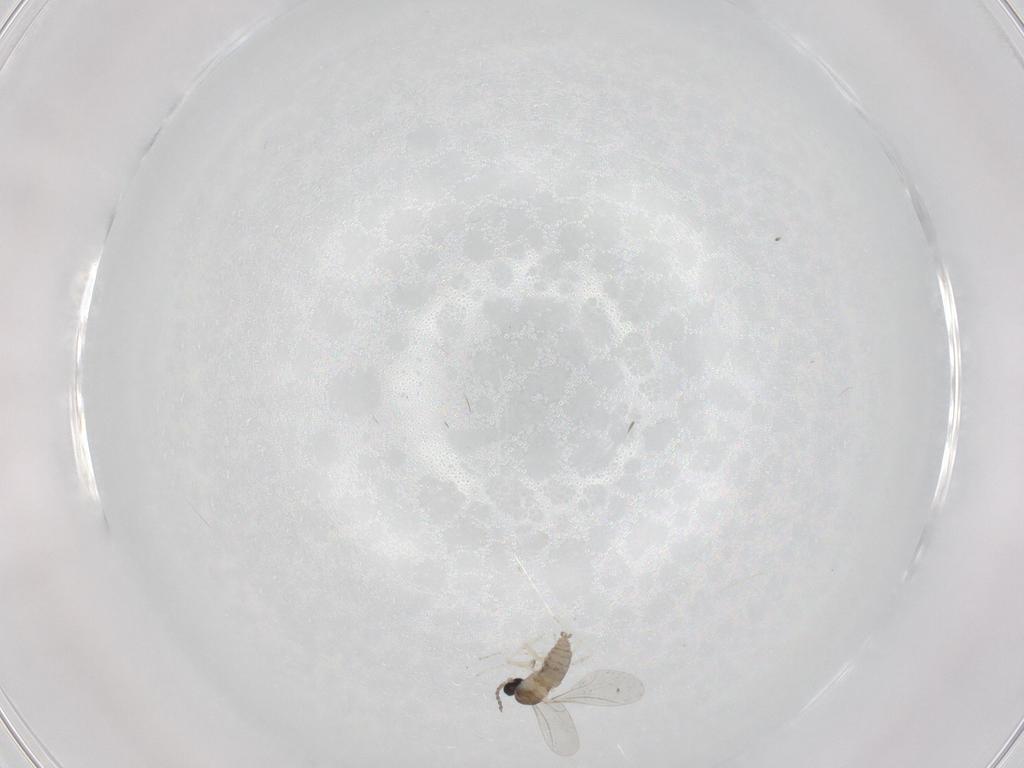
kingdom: Animalia
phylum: Arthropoda
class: Insecta
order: Diptera
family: Cecidomyiidae
